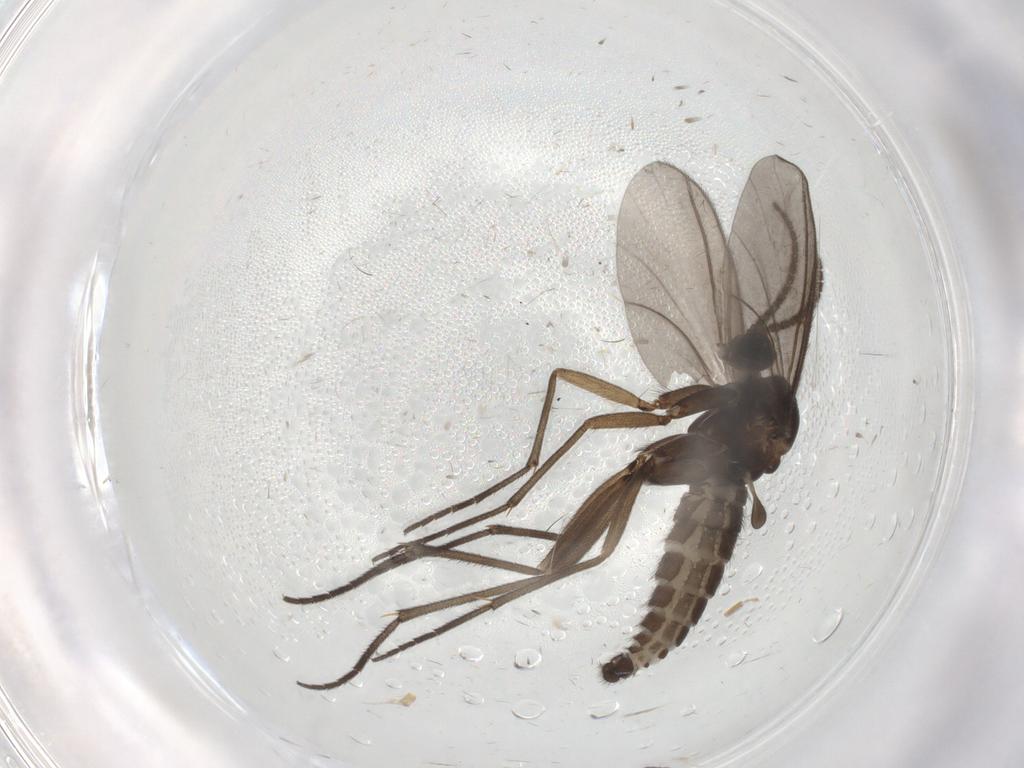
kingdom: Animalia
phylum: Arthropoda
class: Insecta
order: Diptera
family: Sciaridae
